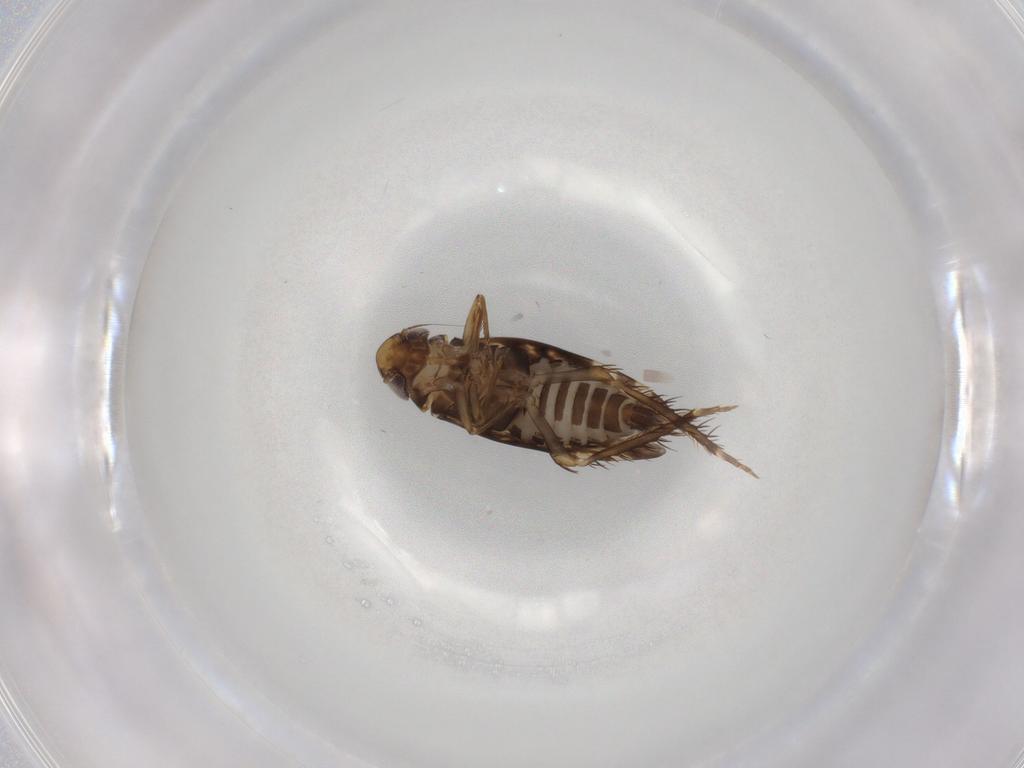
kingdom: Animalia
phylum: Arthropoda
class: Insecta
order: Hemiptera
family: Cicadellidae
